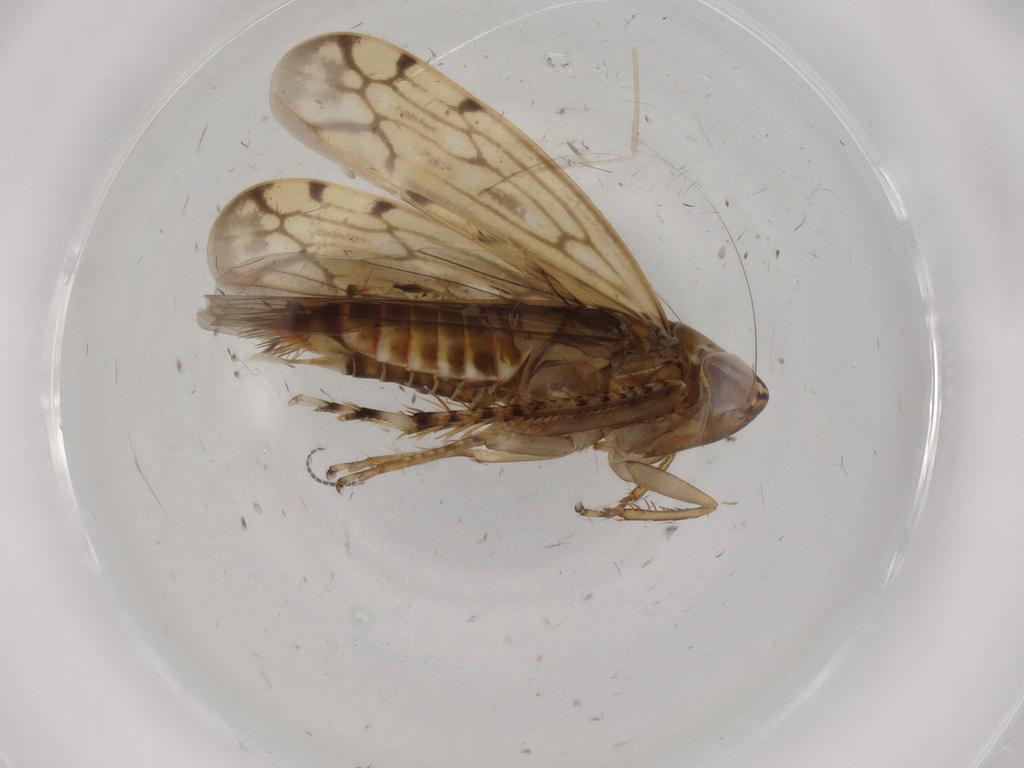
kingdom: Animalia
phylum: Arthropoda
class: Insecta
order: Hemiptera
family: Cicadellidae
